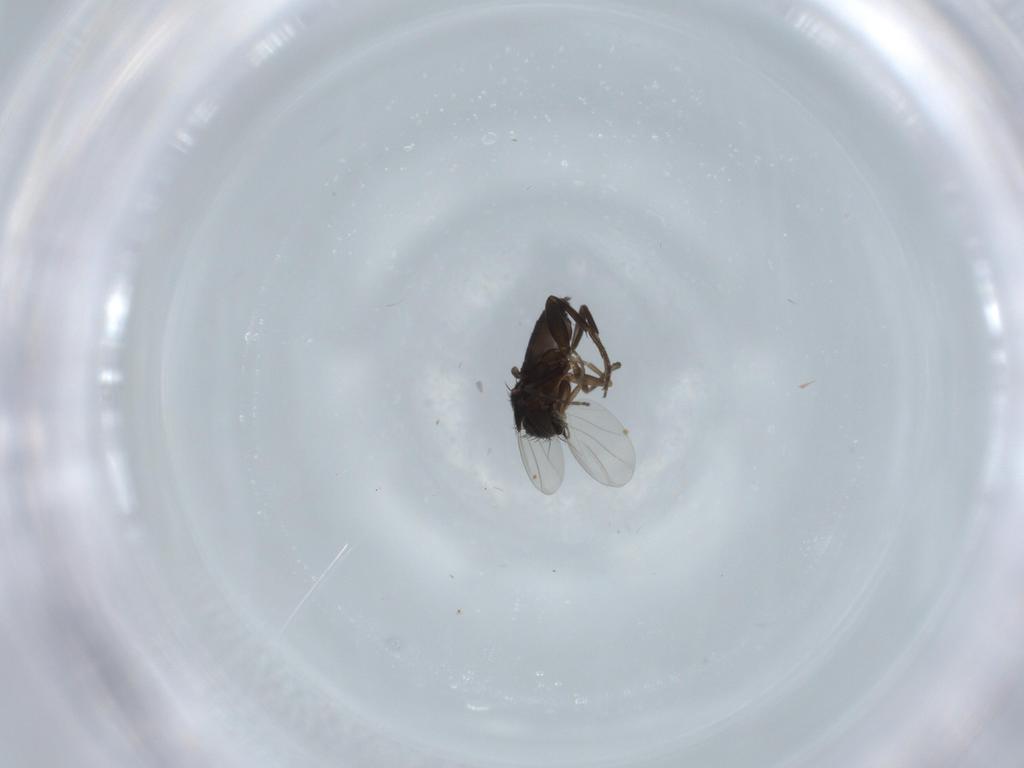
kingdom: Animalia
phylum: Arthropoda
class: Insecta
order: Diptera
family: Phoridae
